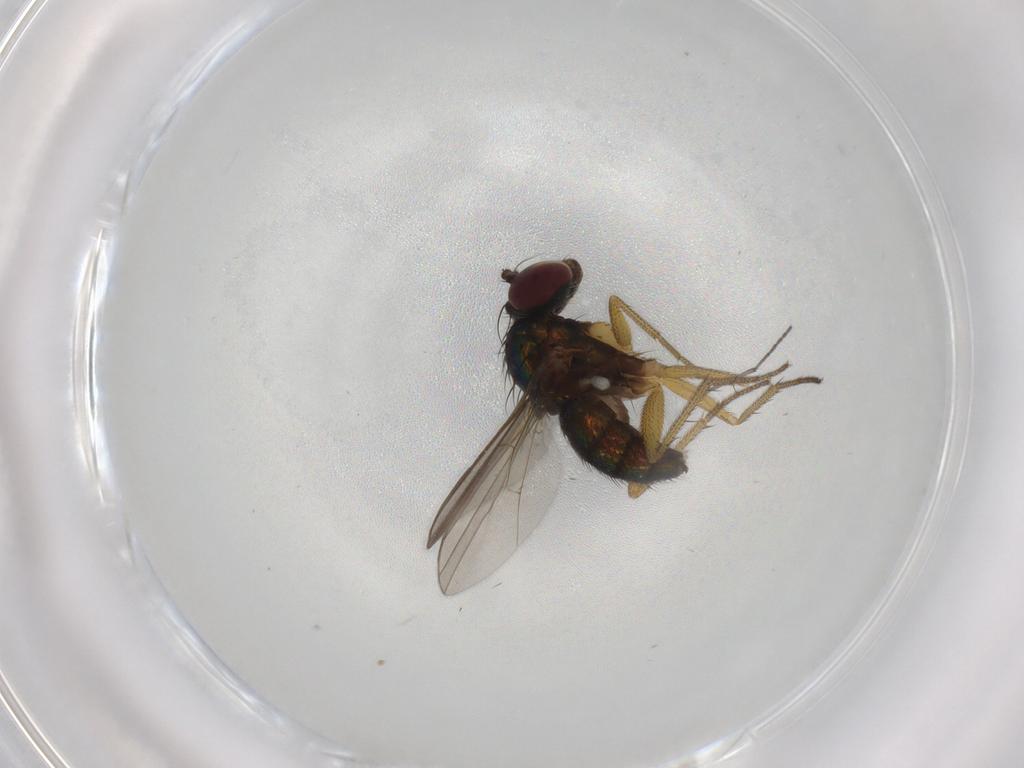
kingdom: Animalia
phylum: Arthropoda
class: Insecta
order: Diptera
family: Sciaridae
